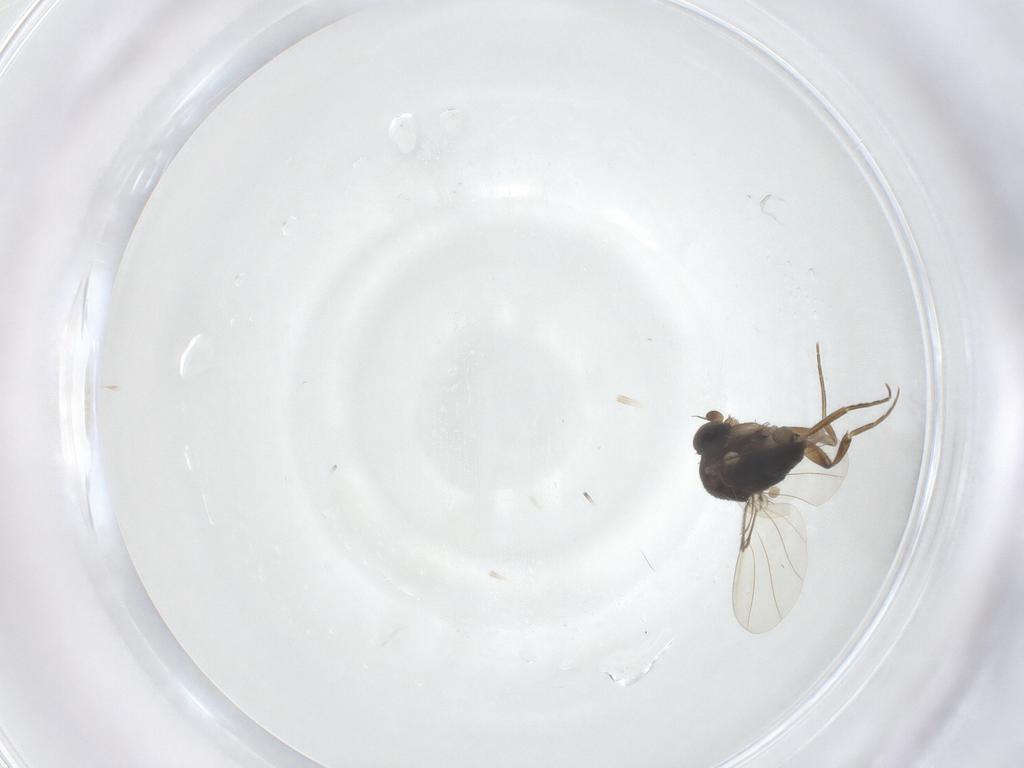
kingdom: Animalia
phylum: Arthropoda
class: Insecta
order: Diptera
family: Phoridae
